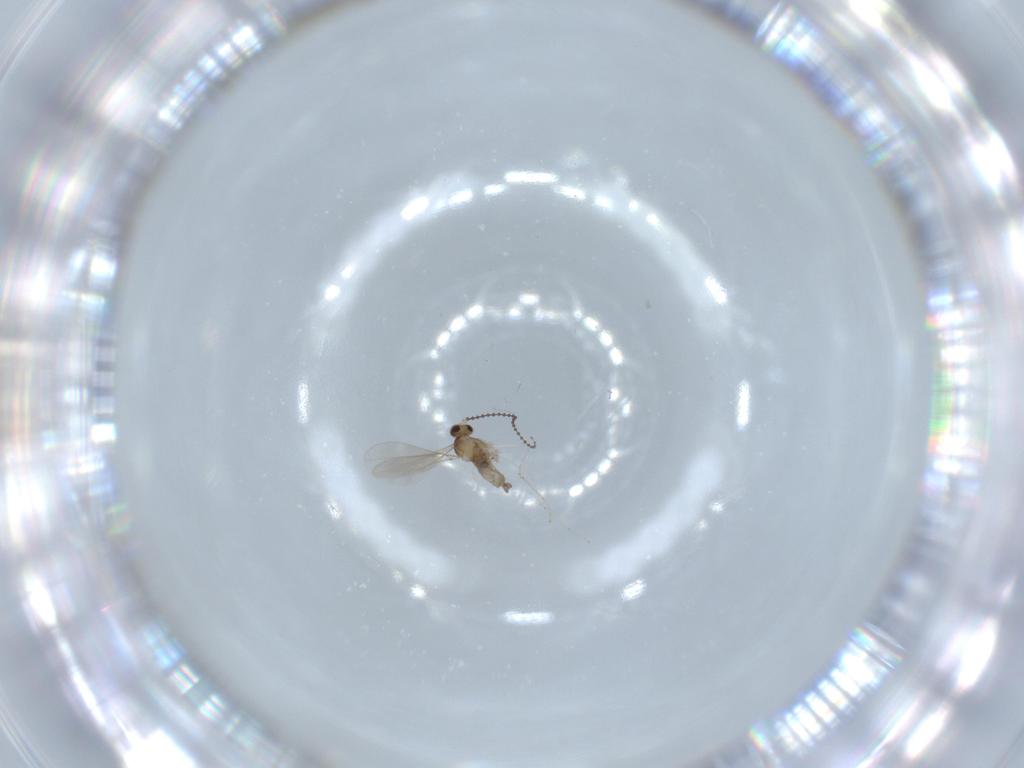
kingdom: Animalia
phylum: Arthropoda
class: Insecta
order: Diptera
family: Lauxaniidae
